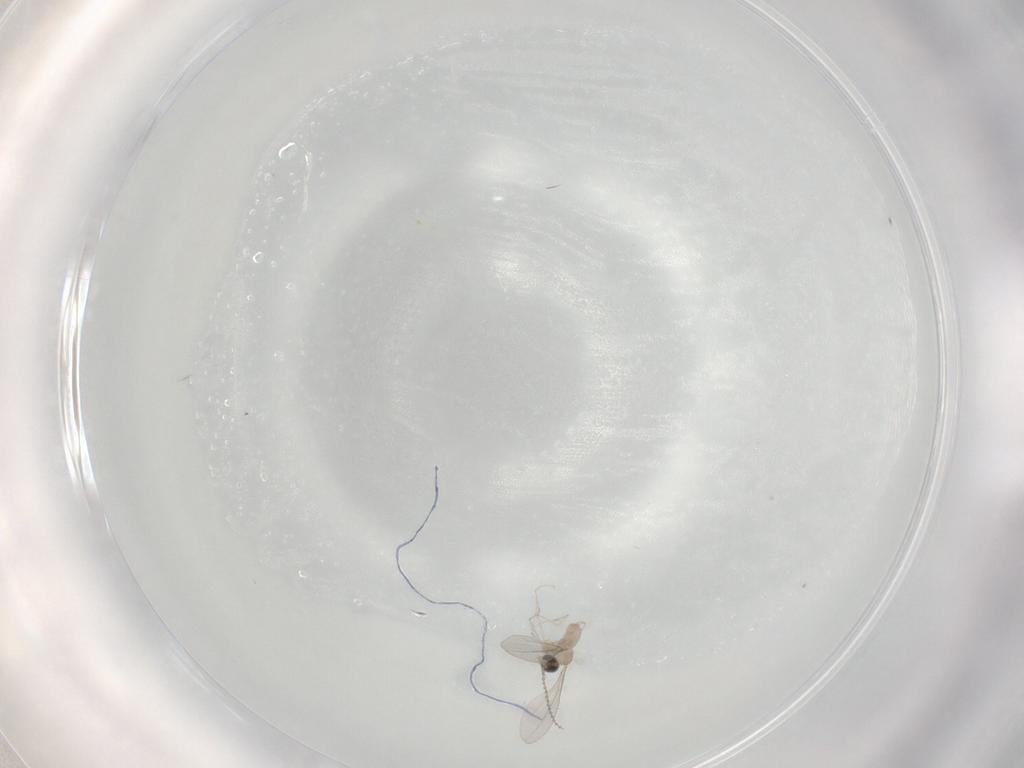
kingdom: Animalia
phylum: Arthropoda
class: Insecta
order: Diptera
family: Cecidomyiidae
